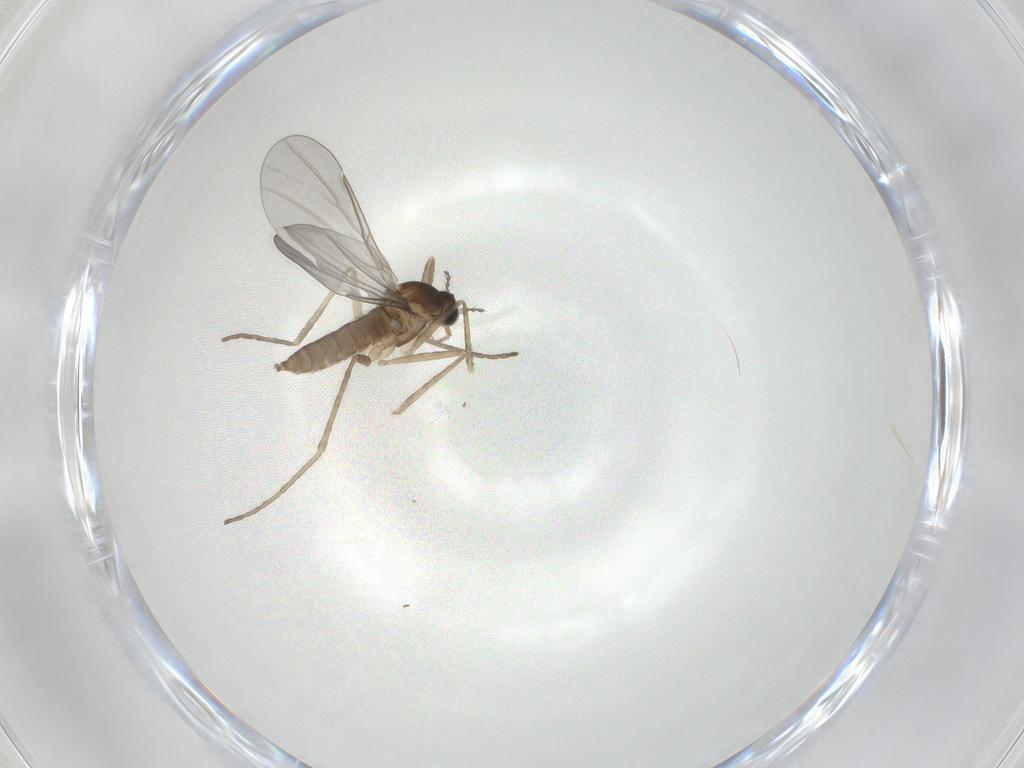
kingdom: Animalia
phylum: Arthropoda
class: Insecta
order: Diptera
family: Cecidomyiidae
